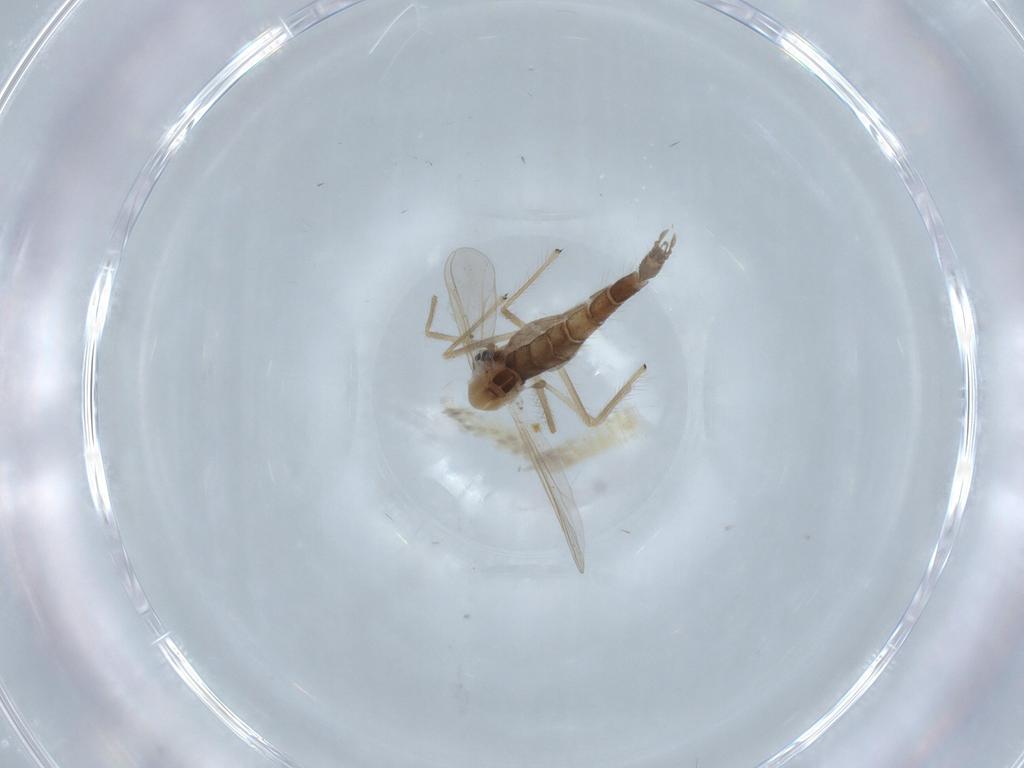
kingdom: Animalia
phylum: Arthropoda
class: Insecta
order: Diptera
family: Chironomidae
